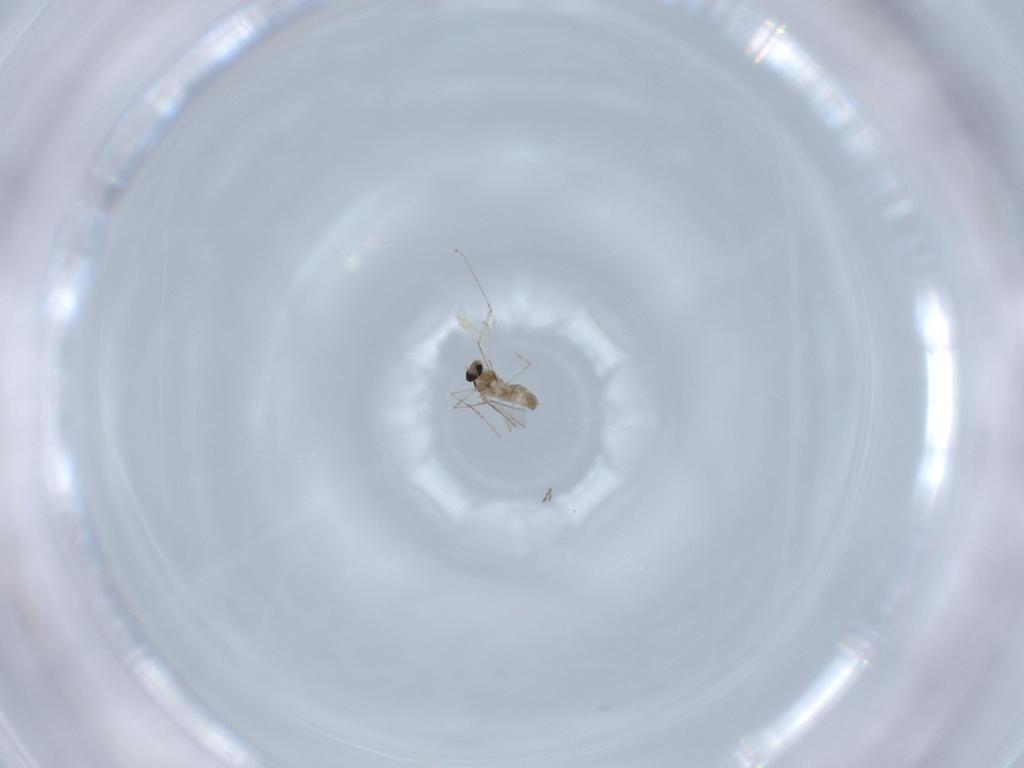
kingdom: Animalia
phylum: Arthropoda
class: Insecta
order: Diptera
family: Cecidomyiidae
